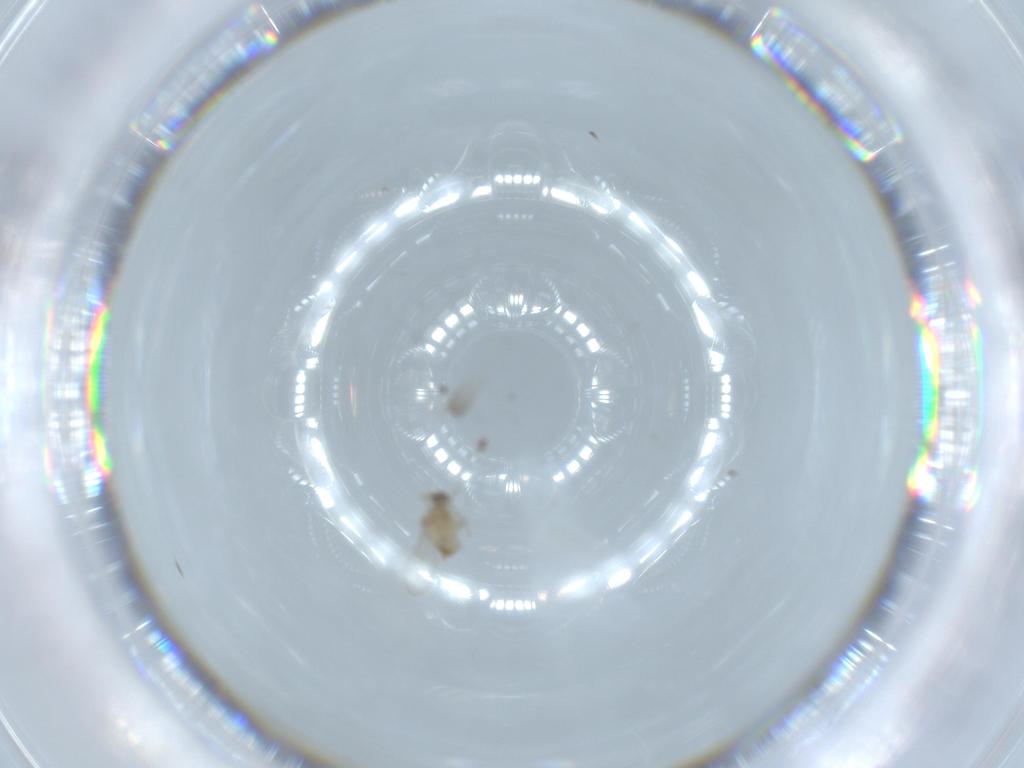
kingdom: Animalia
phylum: Arthropoda
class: Insecta
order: Diptera
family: Cecidomyiidae
